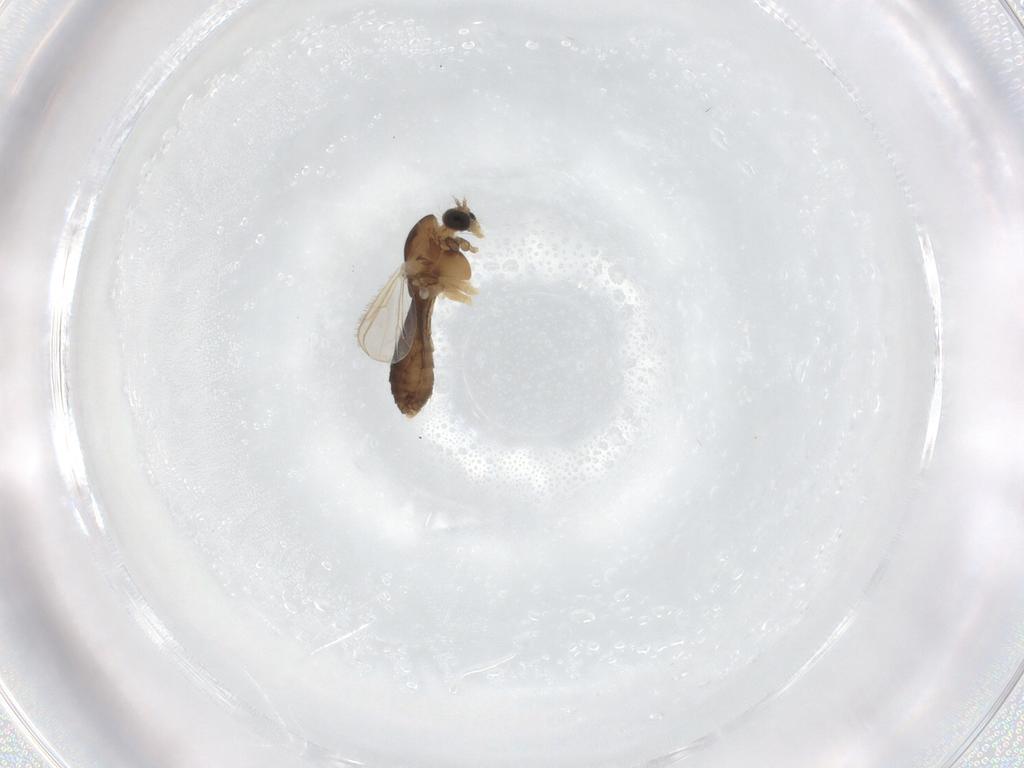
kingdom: Animalia
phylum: Arthropoda
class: Insecta
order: Diptera
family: Chironomidae
